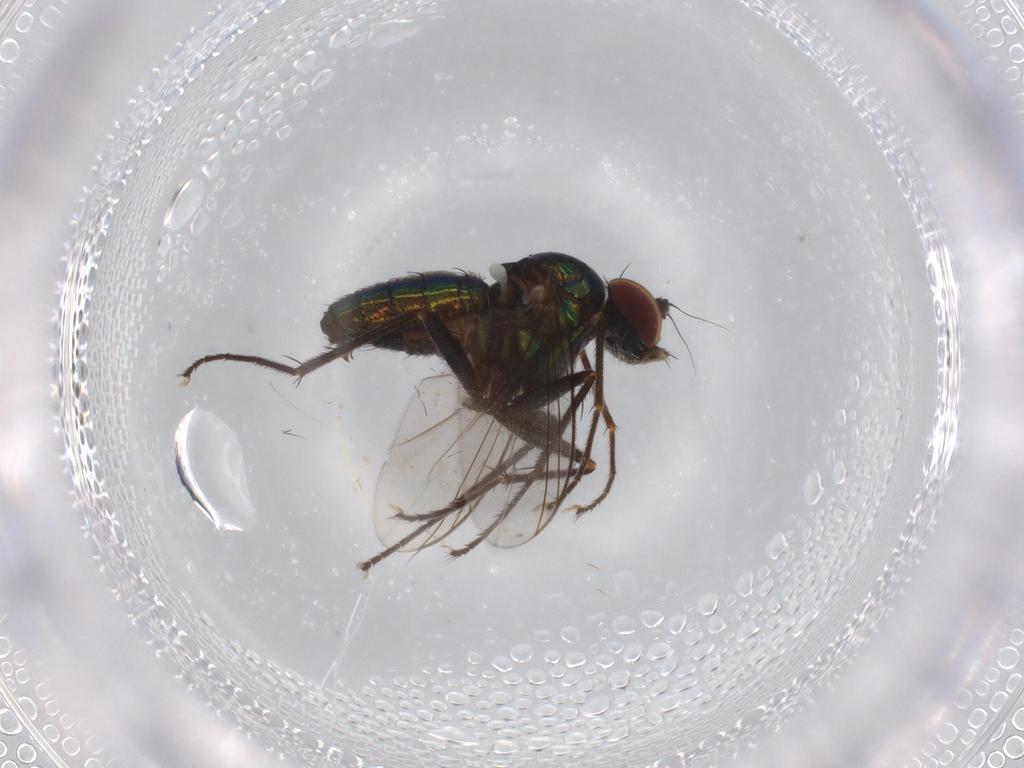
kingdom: Animalia
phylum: Arthropoda
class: Insecta
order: Diptera
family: Dolichopodidae
